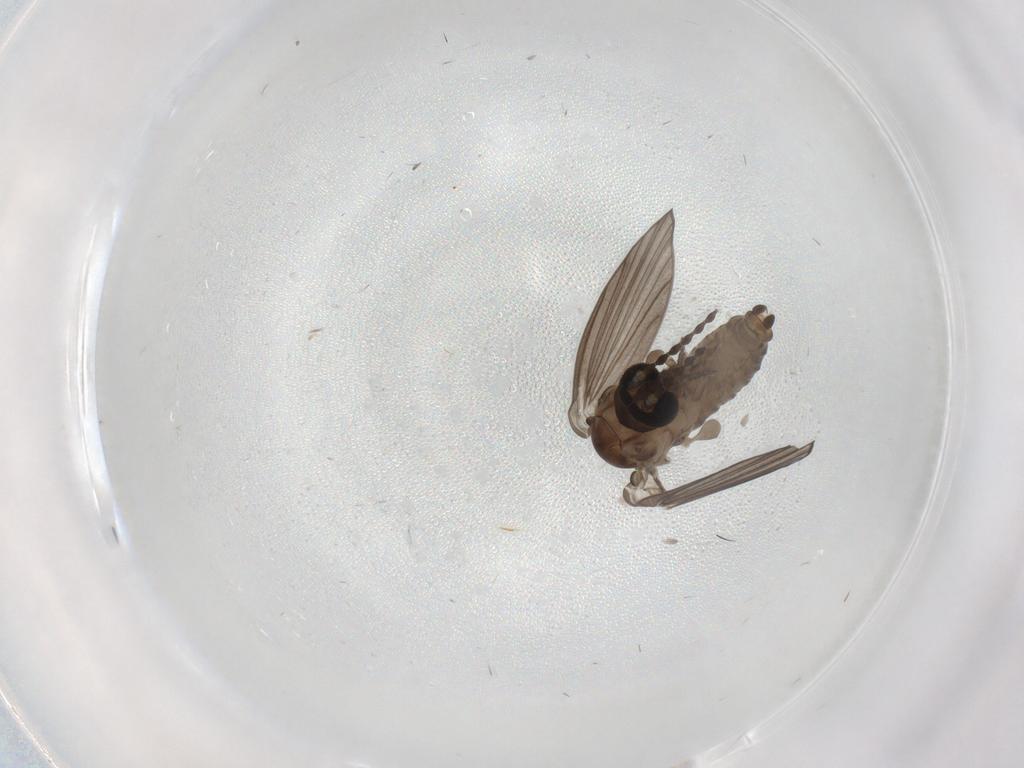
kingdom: Animalia
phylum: Arthropoda
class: Insecta
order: Diptera
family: Psychodidae
